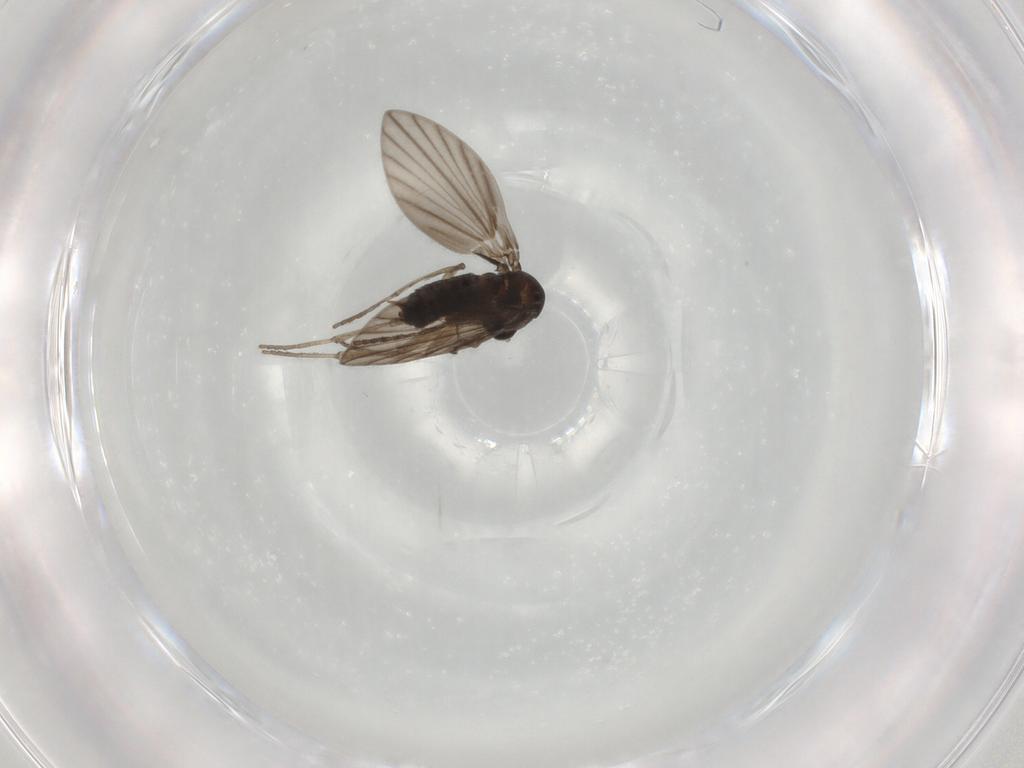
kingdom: Animalia
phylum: Arthropoda
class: Insecta
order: Diptera
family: Psychodidae
